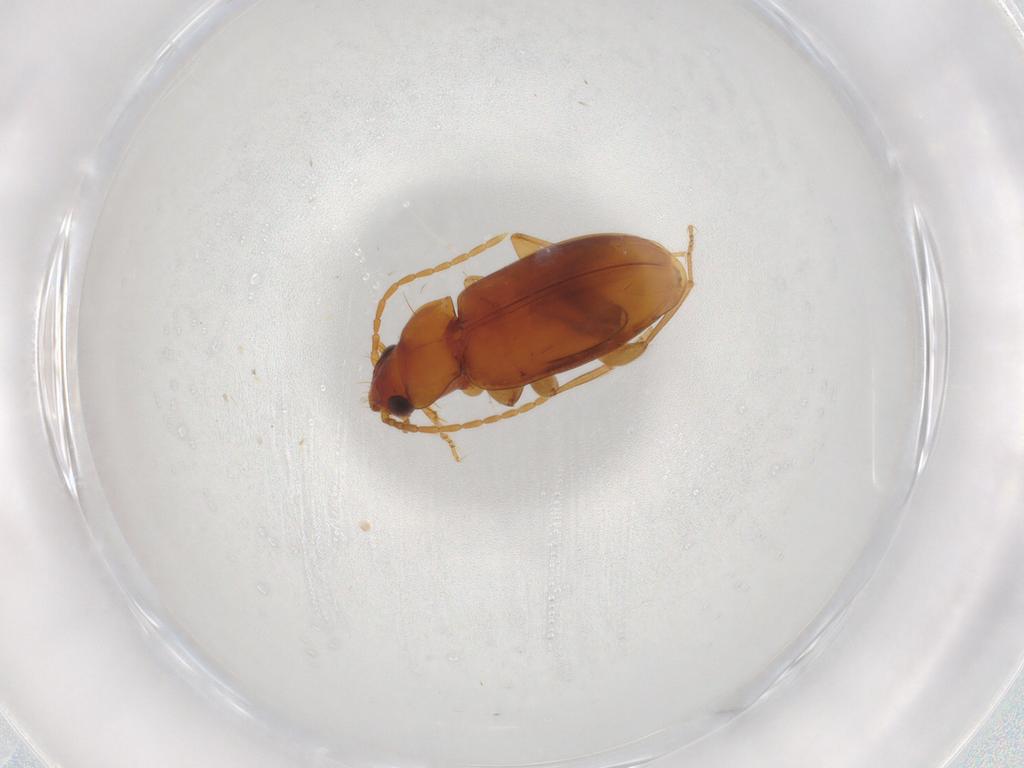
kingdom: Animalia
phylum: Arthropoda
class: Insecta
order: Coleoptera
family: Carabidae
